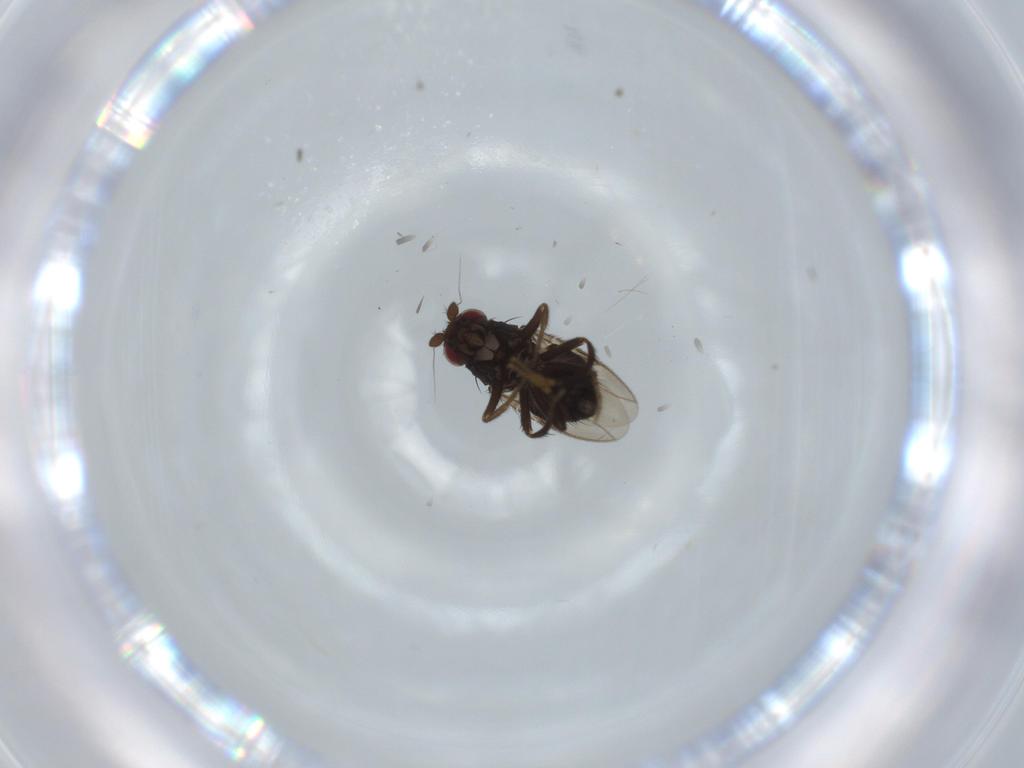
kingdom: Animalia
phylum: Arthropoda
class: Insecta
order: Diptera
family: Sphaeroceridae
